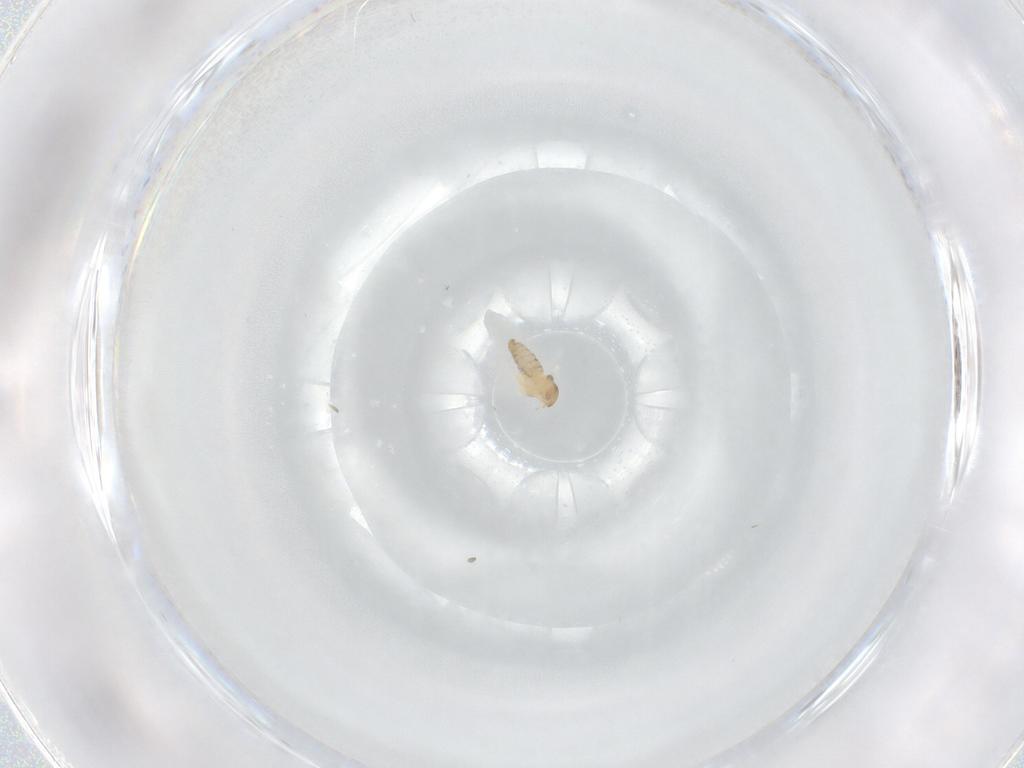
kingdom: Animalia
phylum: Arthropoda
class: Insecta
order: Diptera
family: Cecidomyiidae
